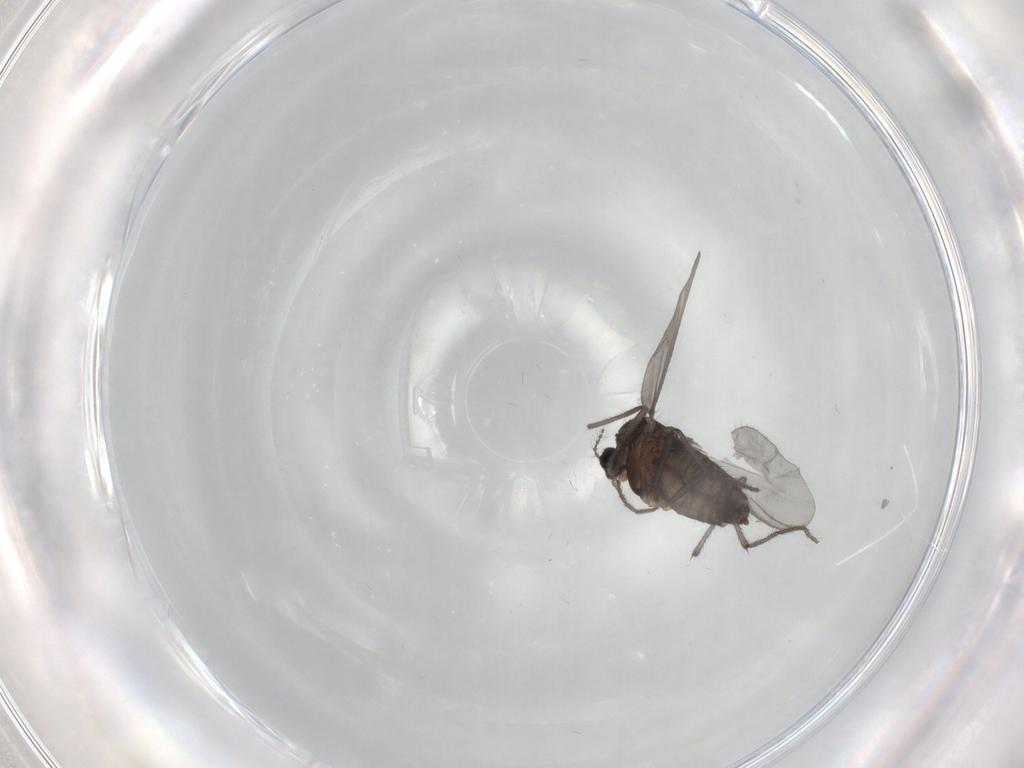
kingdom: Animalia
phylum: Arthropoda
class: Insecta
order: Diptera
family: Chironomidae
